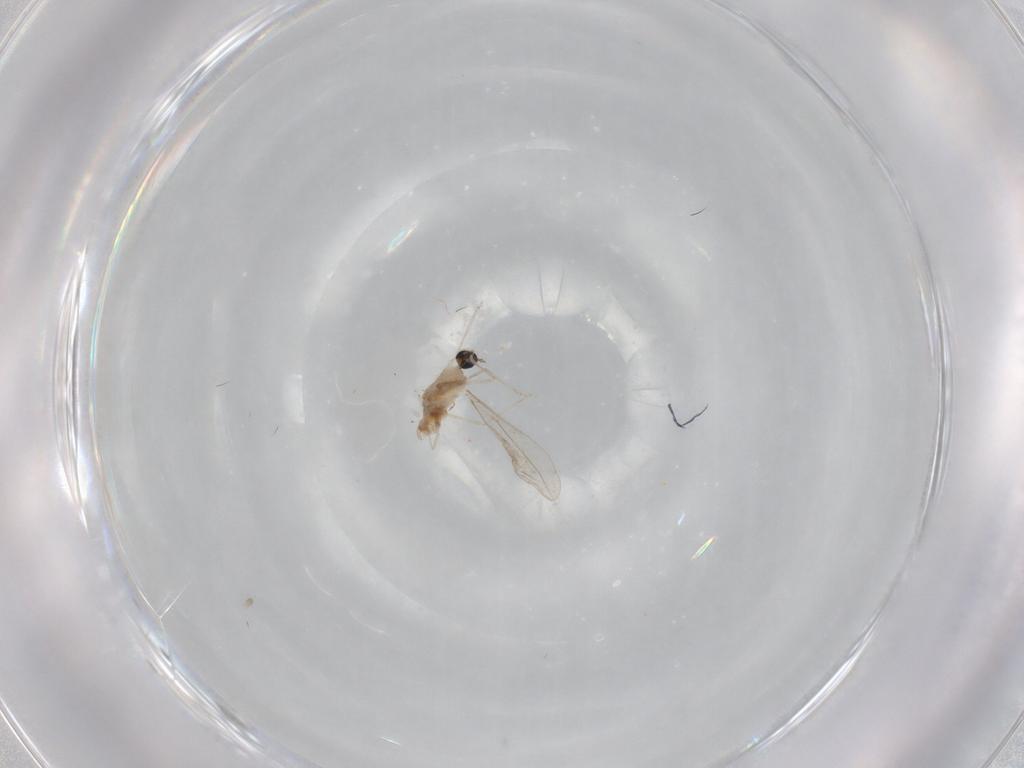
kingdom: Animalia
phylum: Arthropoda
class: Insecta
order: Diptera
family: Cecidomyiidae
